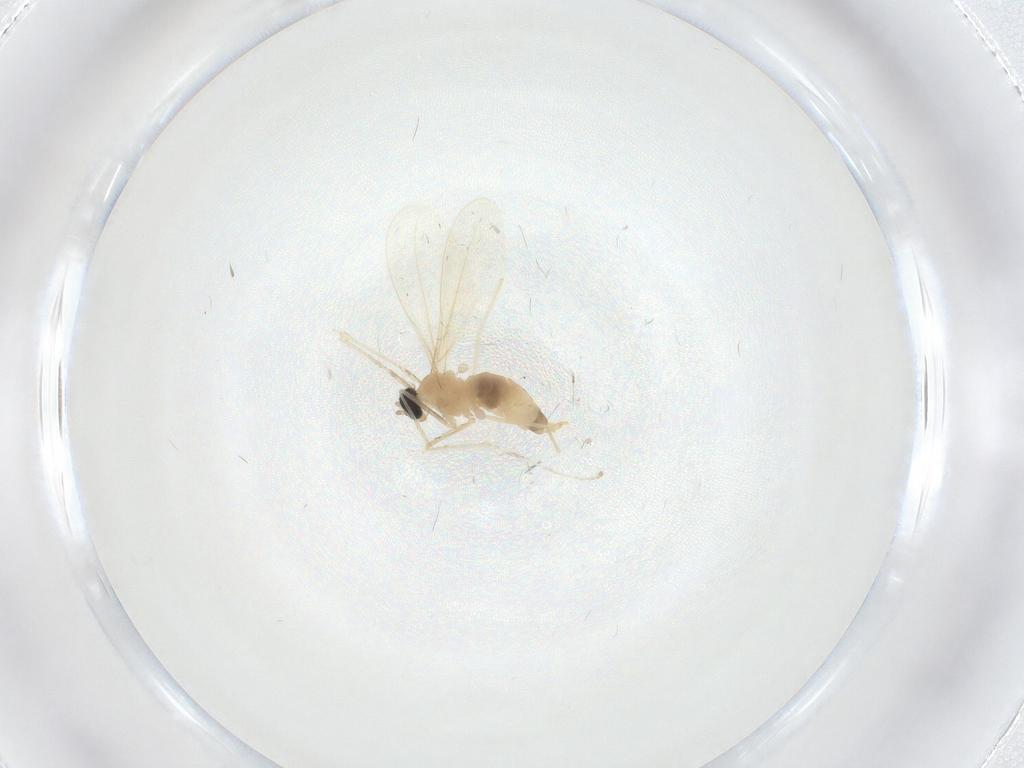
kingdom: Animalia
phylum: Arthropoda
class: Insecta
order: Diptera
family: Cecidomyiidae
